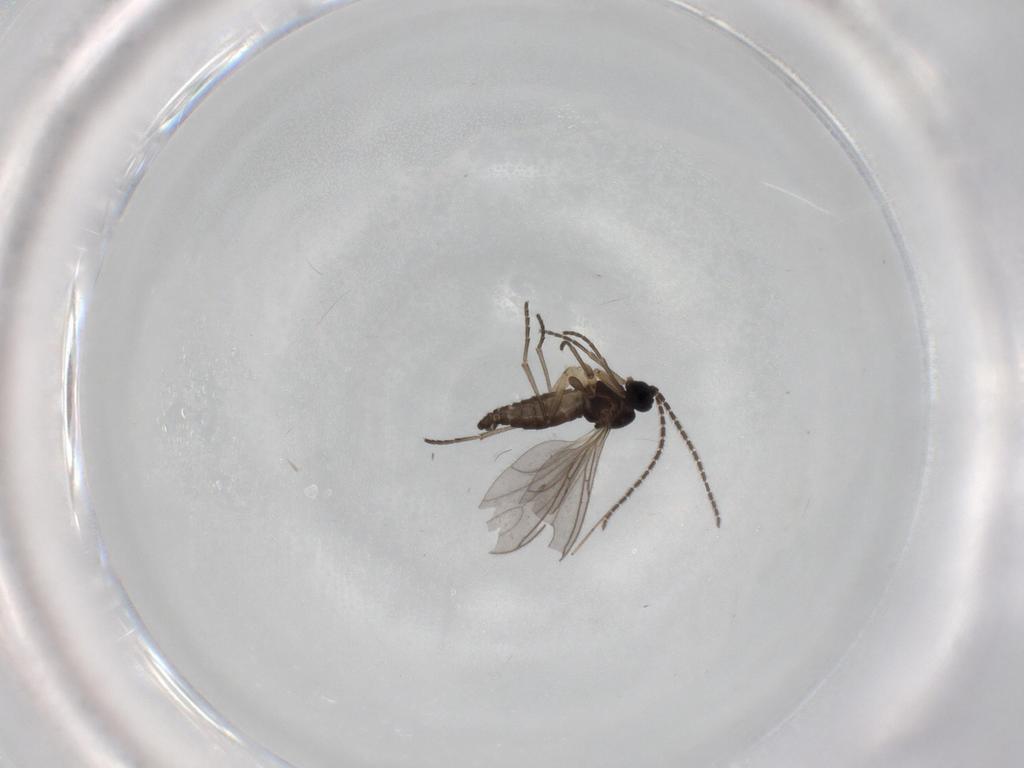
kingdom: Animalia
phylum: Arthropoda
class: Insecta
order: Diptera
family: Sciaridae
